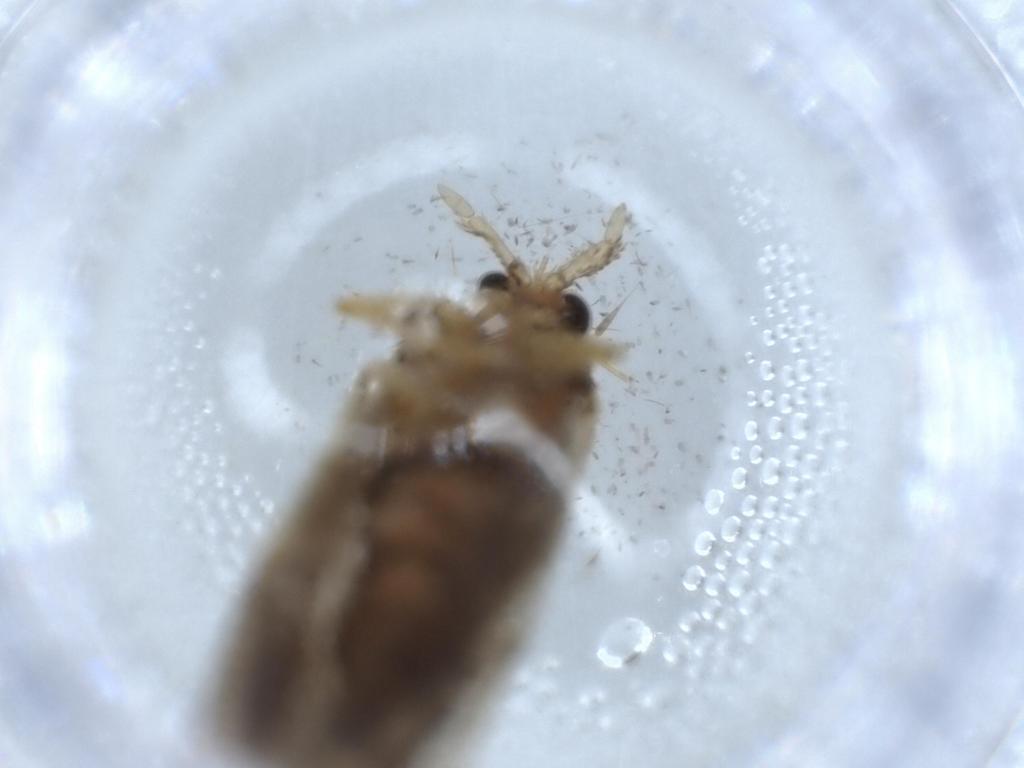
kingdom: Animalia
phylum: Arthropoda
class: Insecta
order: Lepidoptera
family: Tineidae
